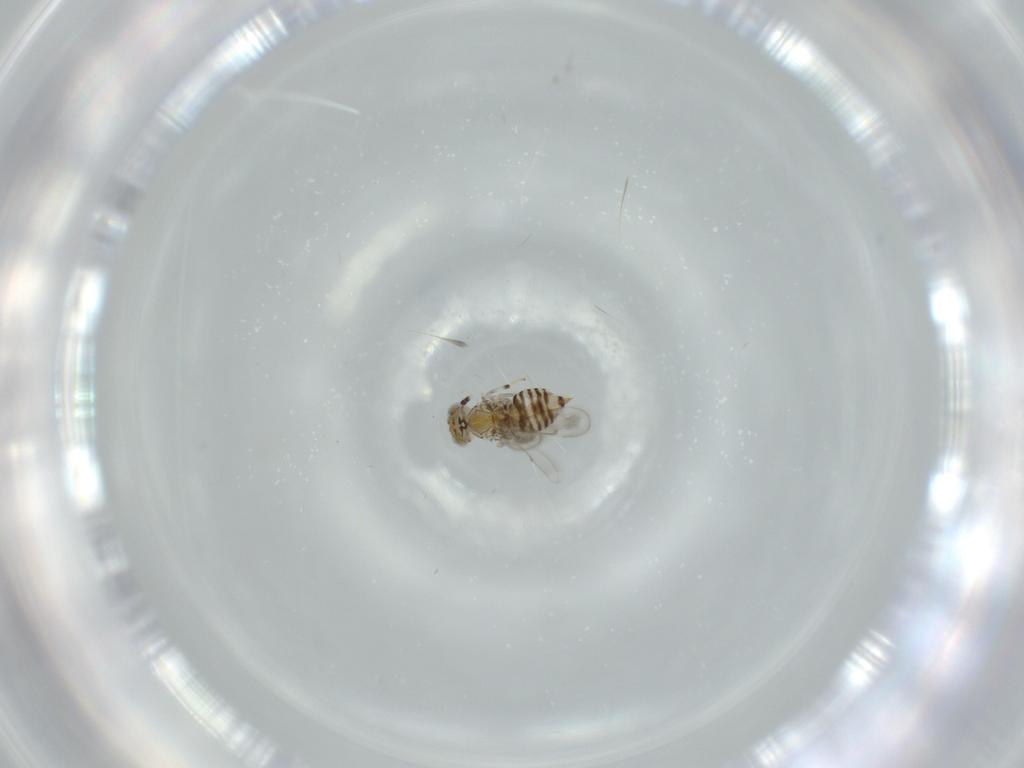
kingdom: Animalia
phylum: Arthropoda
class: Insecta
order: Hymenoptera
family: Aphelinidae
